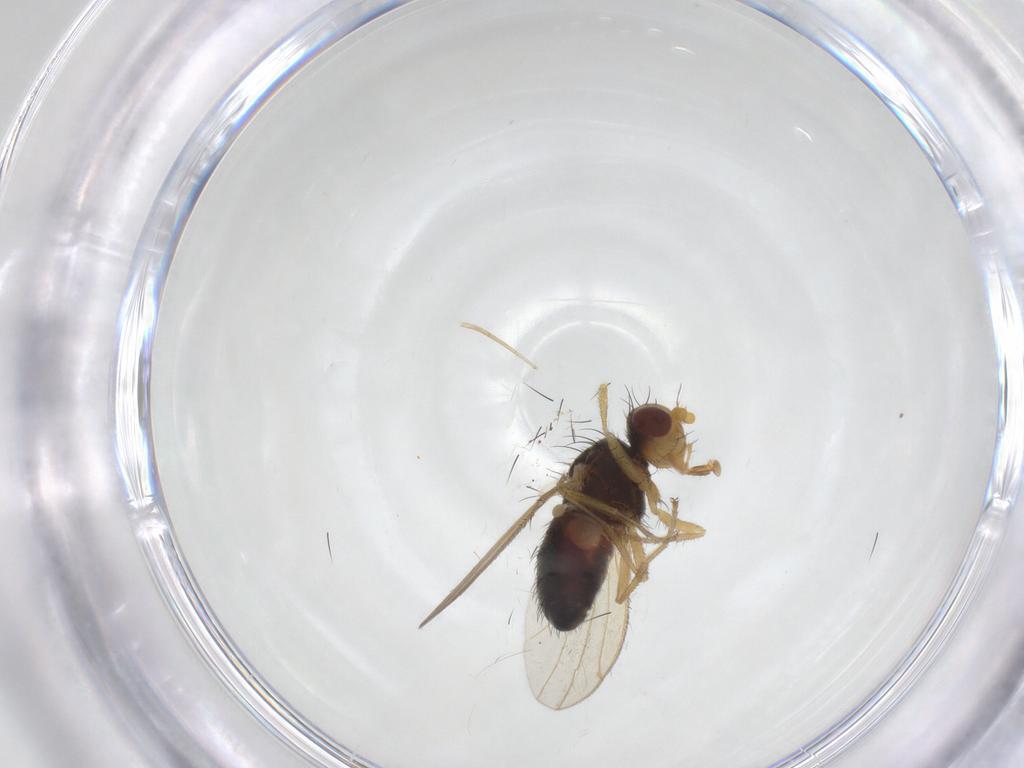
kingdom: Animalia
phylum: Arthropoda
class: Insecta
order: Diptera
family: Heleomyzidae
